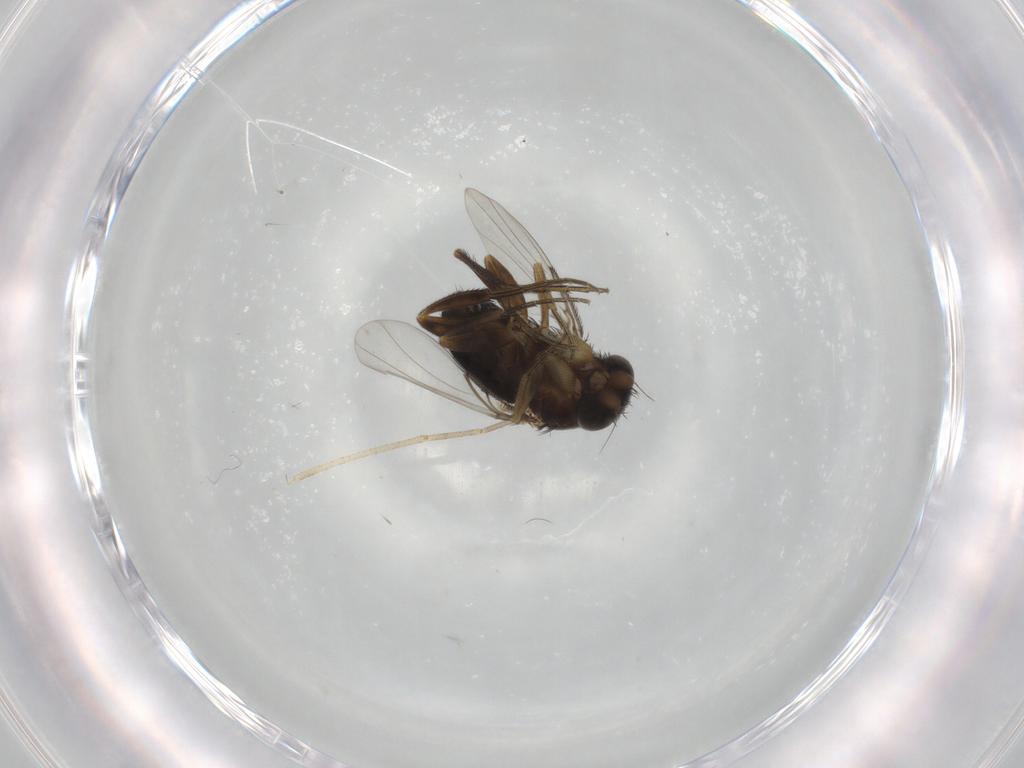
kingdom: Animalia
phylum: Arthropoda
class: Insecta
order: Diptera
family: Phoridae
